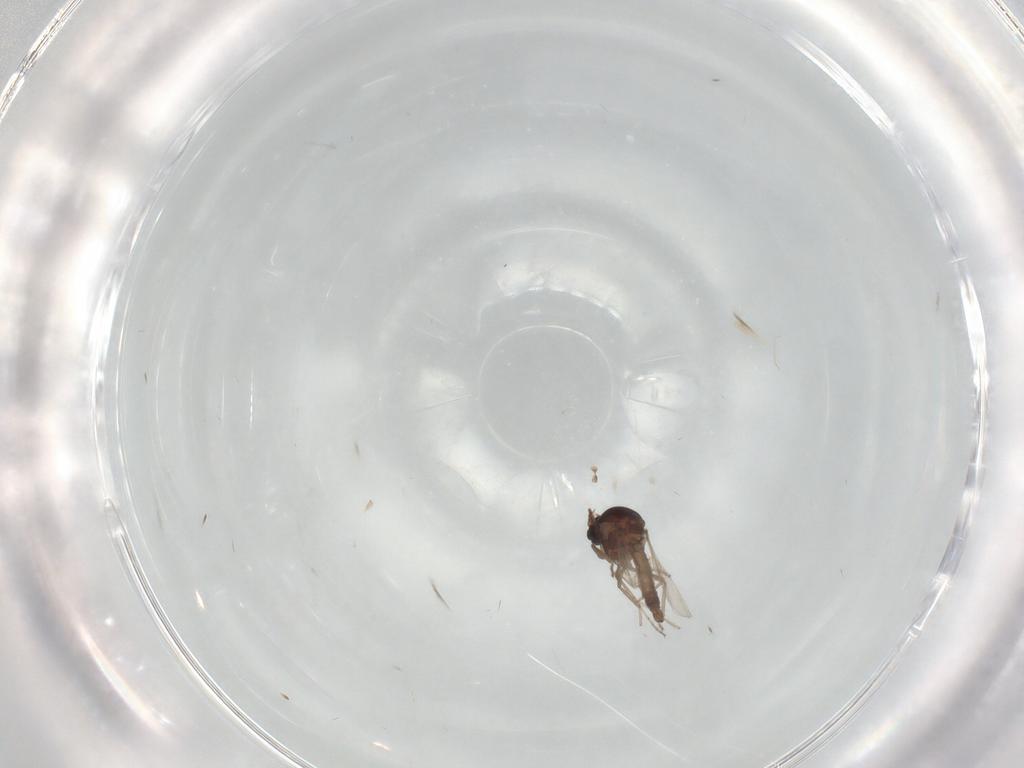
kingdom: Animalia
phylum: Arthropoda
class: Insecta
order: Diptera
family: Ceratopogonidae
